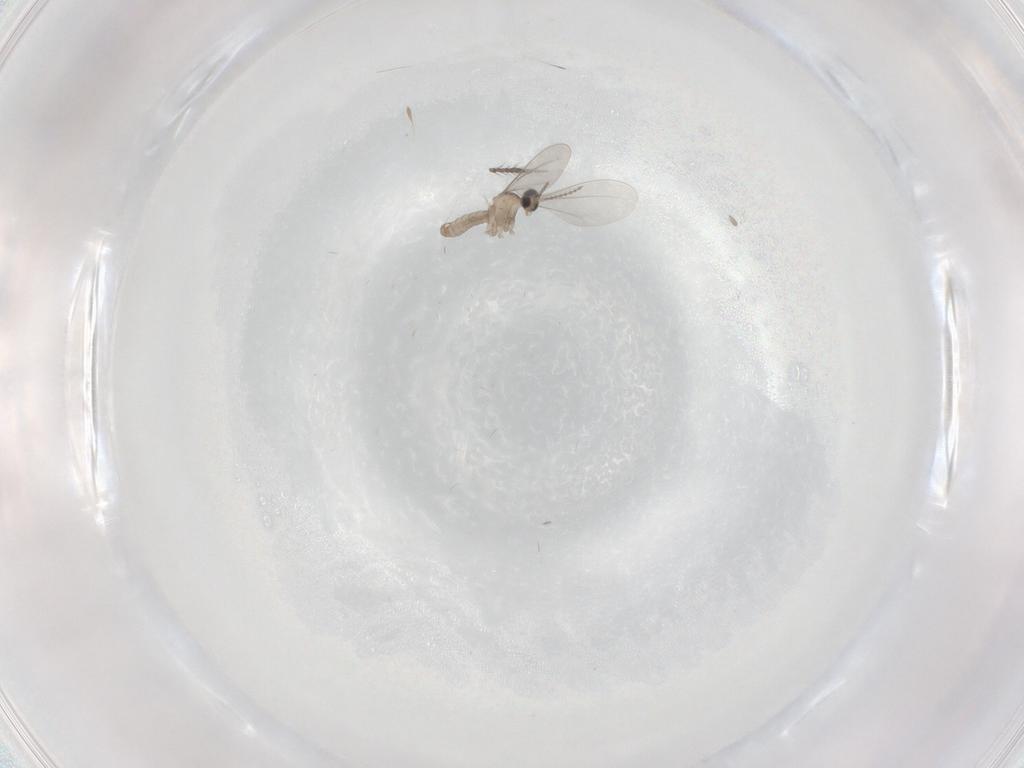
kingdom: Animalia
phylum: Arthropoda
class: Insecta
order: Diptera
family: Cecidomyiidae
